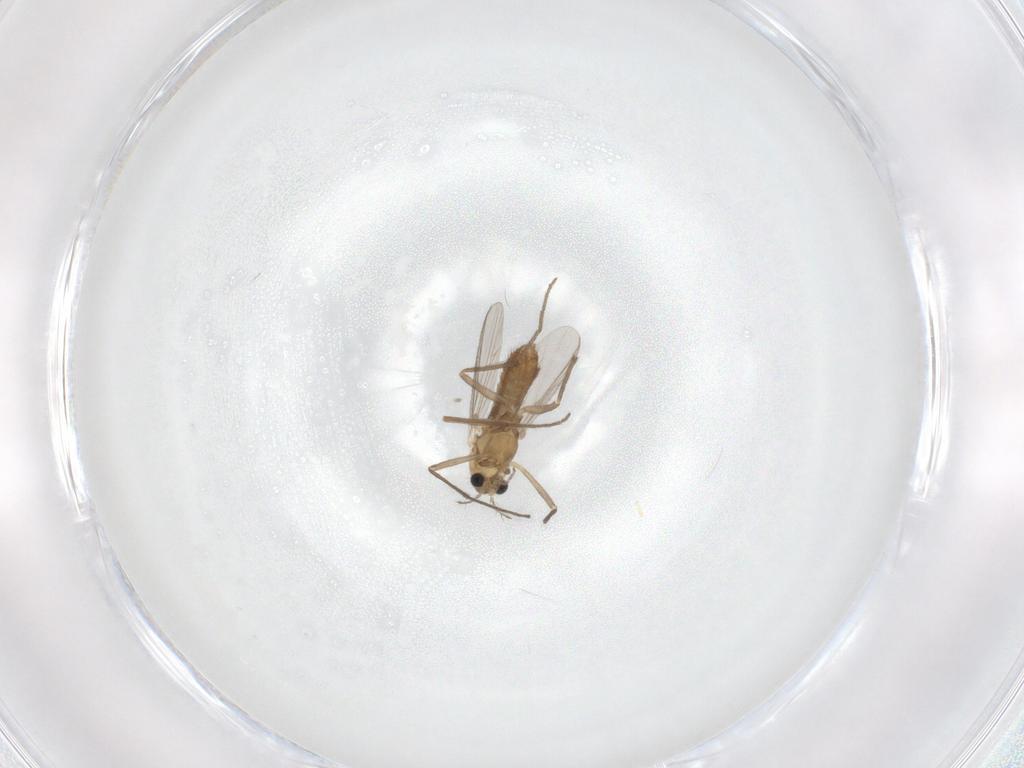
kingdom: Animalia
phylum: Arthropoda
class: Insecta
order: Diptera
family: Chironomidae
